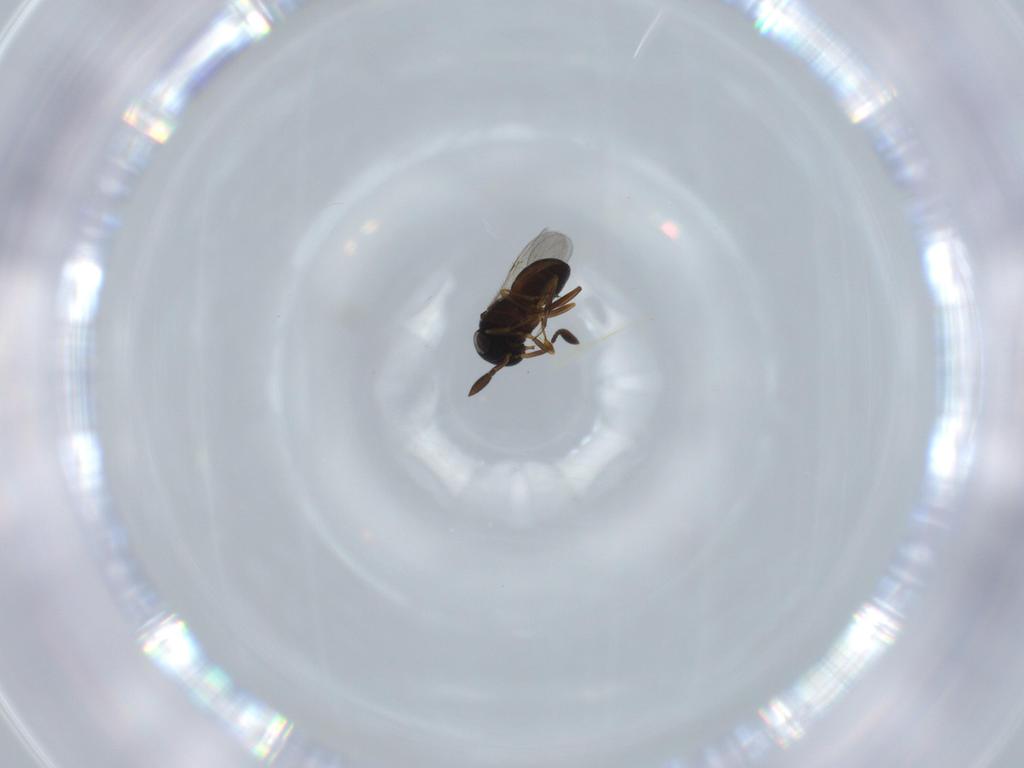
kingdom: Animalia
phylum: Arthropoda
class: Insecta
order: Hymenoptera
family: Scelionidae
